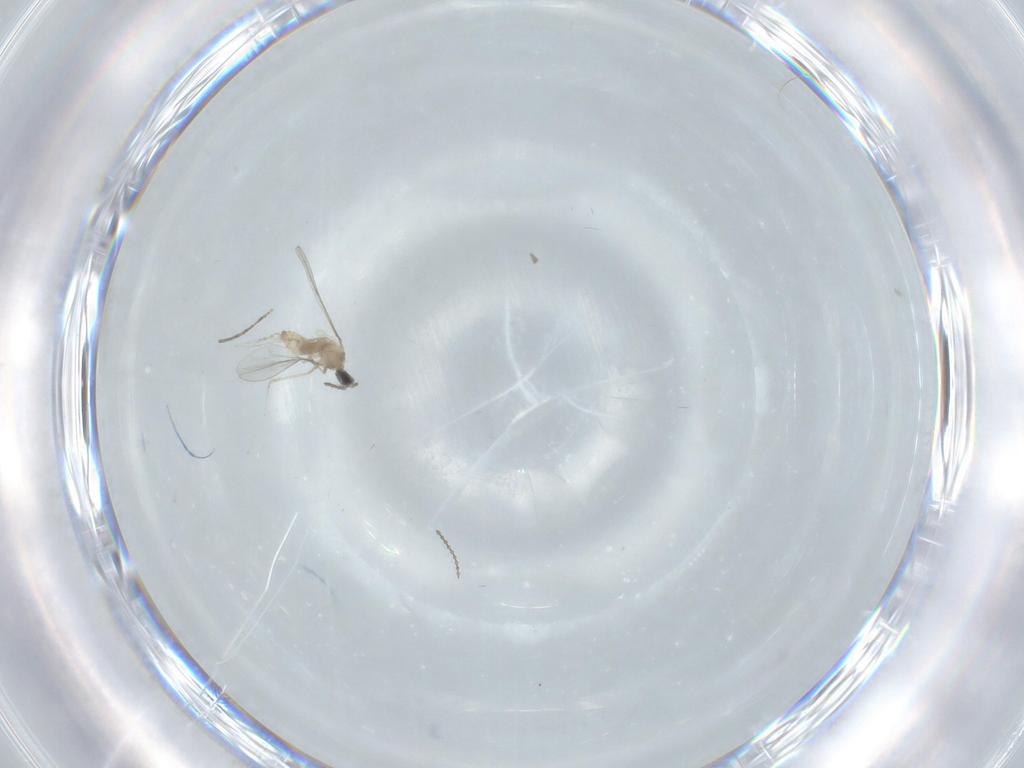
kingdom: Animalia
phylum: Arthropoda
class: Insecta
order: Diptera
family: Cecidomyiidae
